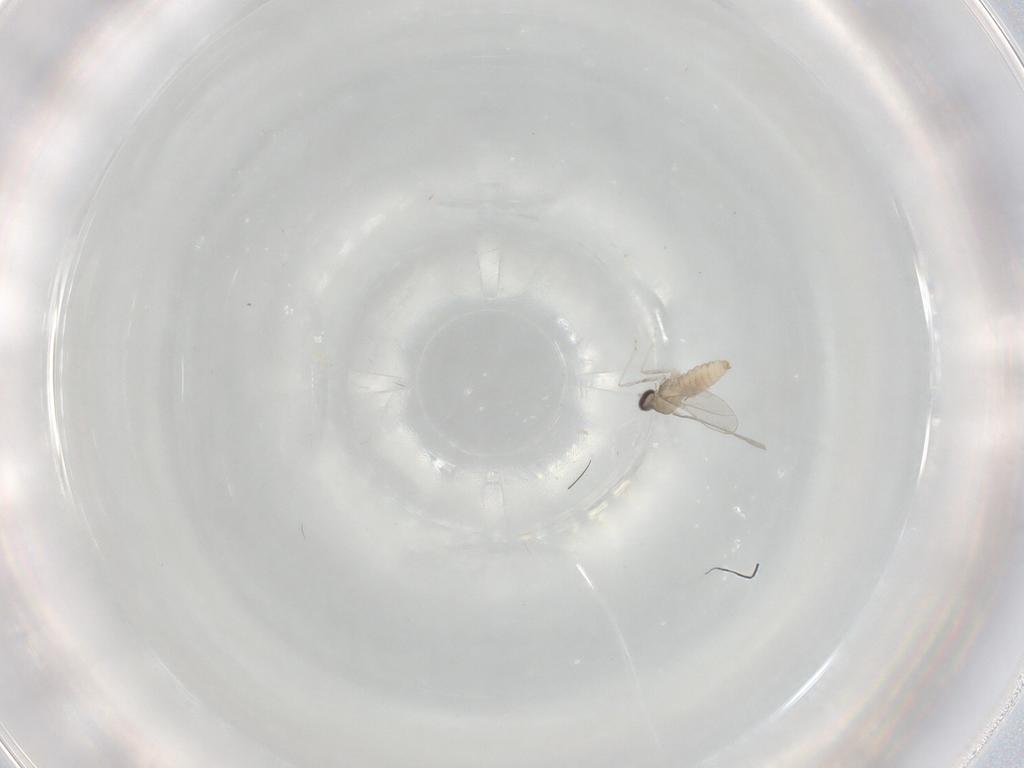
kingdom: Animalia
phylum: Arthropoda
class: Insecta
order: Diptera
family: Cecidomyiidae
